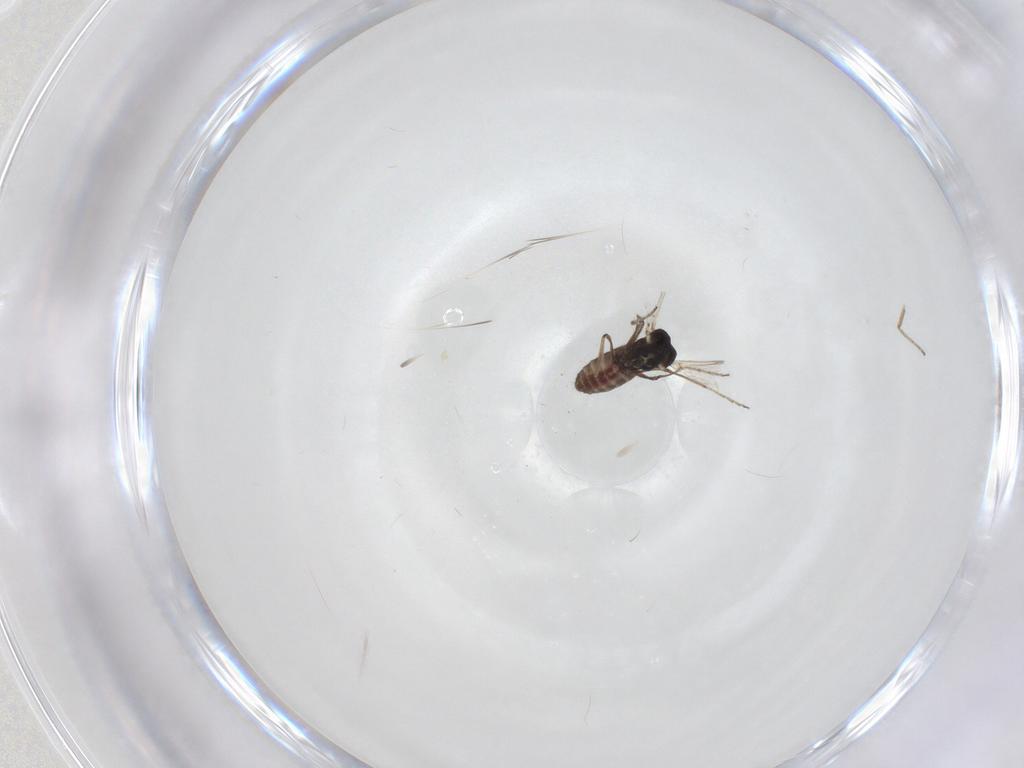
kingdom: Animalia
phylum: Arthropoda
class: Insecta
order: Diptera
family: Ceratopogonidae
